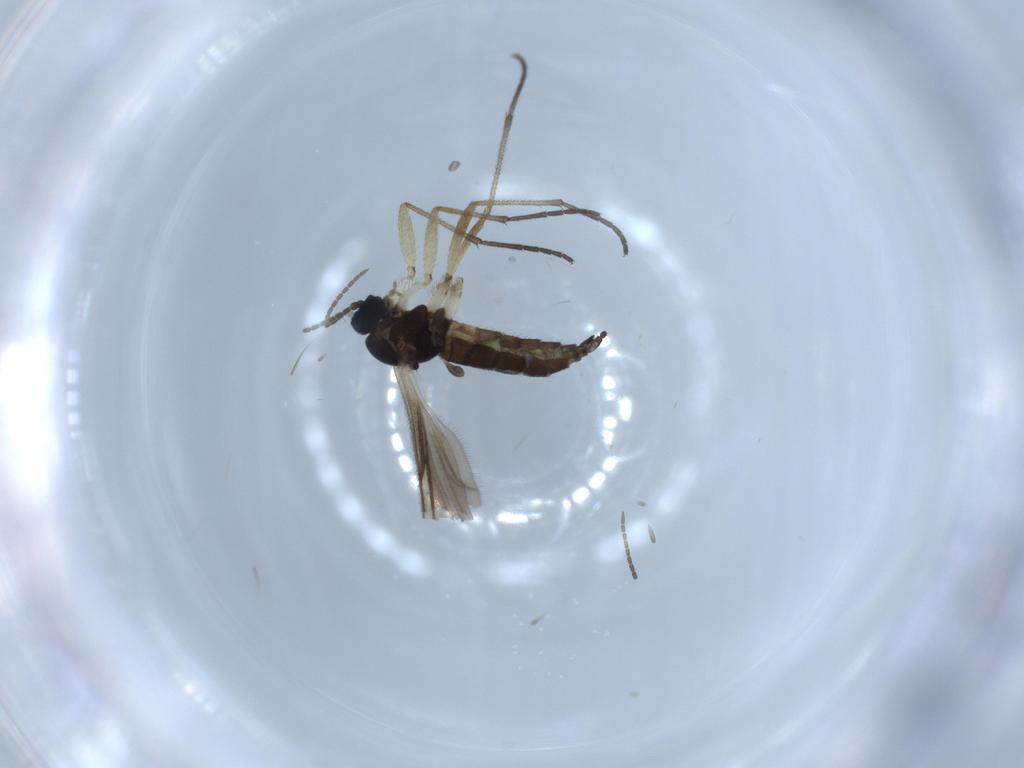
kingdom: Animalia
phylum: Arthropoda
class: Insecta
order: Diptera
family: Sciaridae
